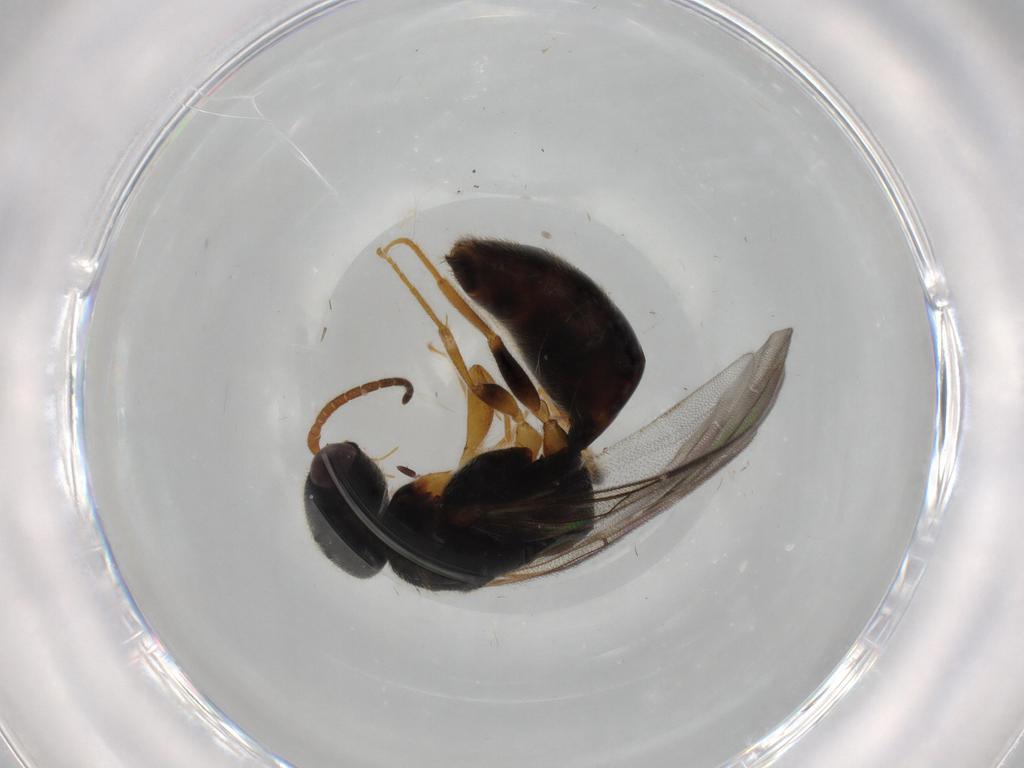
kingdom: Animalia
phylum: Arthropoda
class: Insecta
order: Hymenoptera
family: Bethylidae
